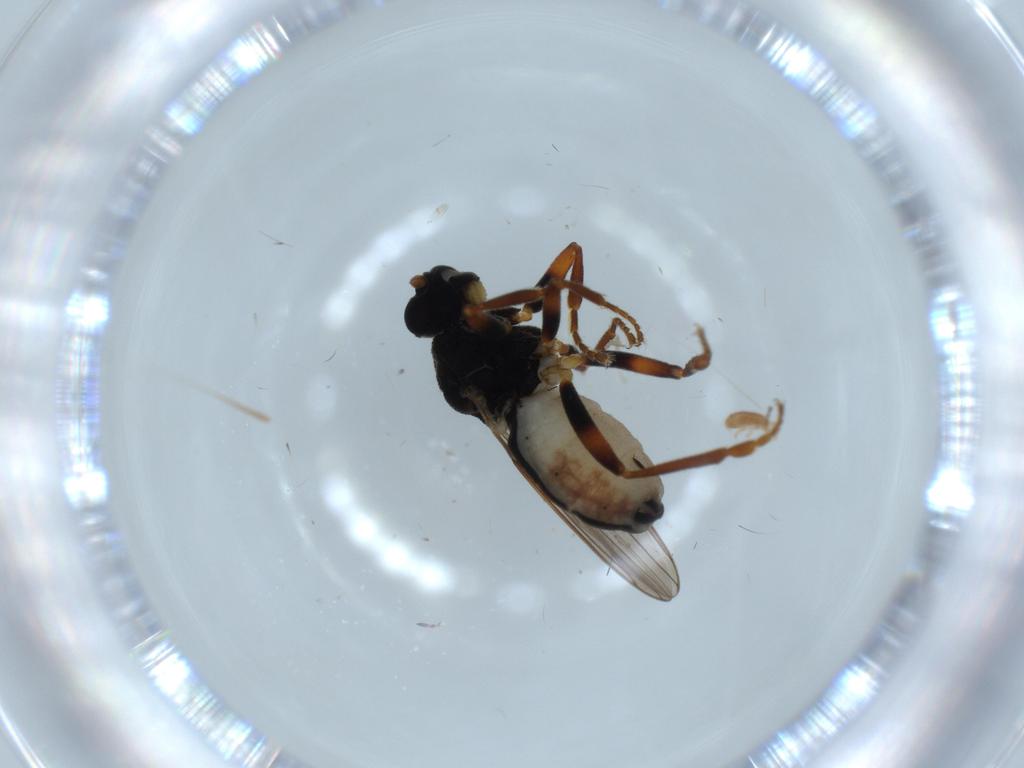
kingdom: Animalia
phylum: Arthropoda
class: Insecta
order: Diptera
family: Sphaeroceridae
